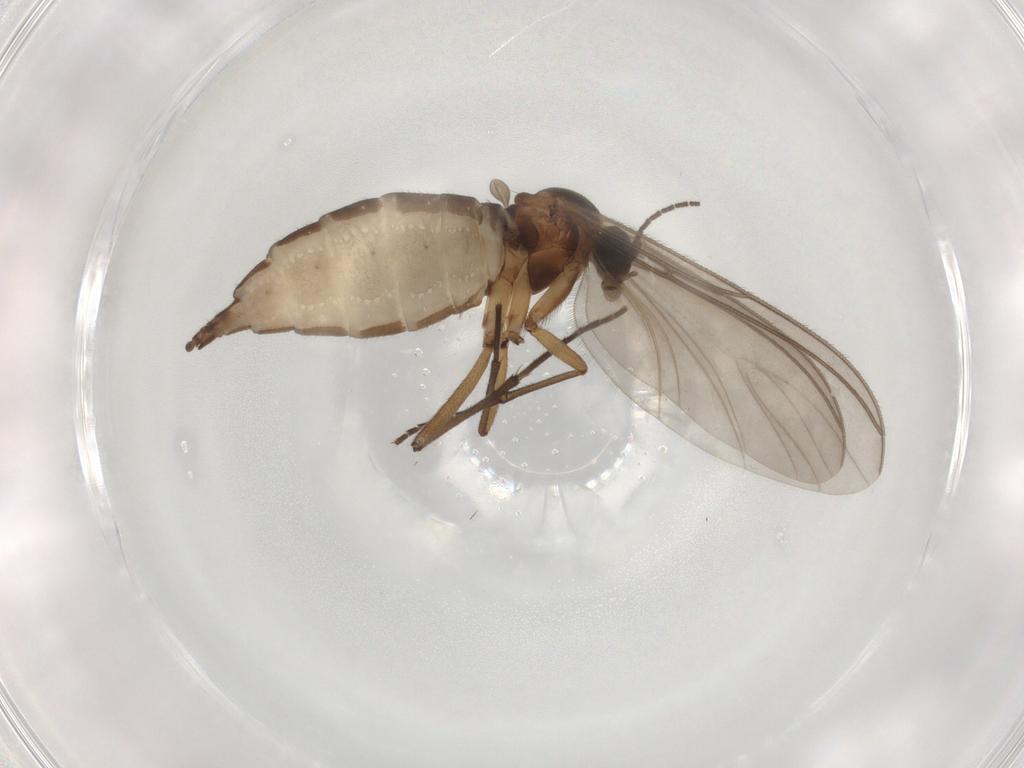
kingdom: Animalia
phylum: Arthropoda
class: Insecta
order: Diptera
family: Sciaridae
